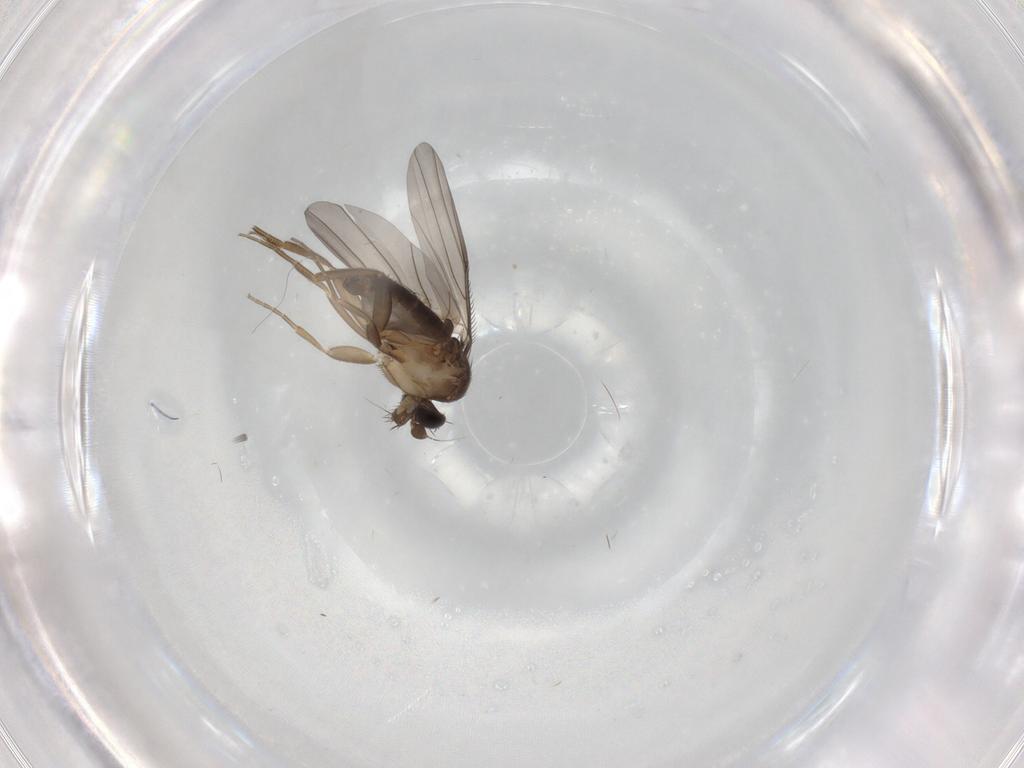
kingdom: Animalia
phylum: Arthropoda
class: Insecta
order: Diptera
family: Phoridae
